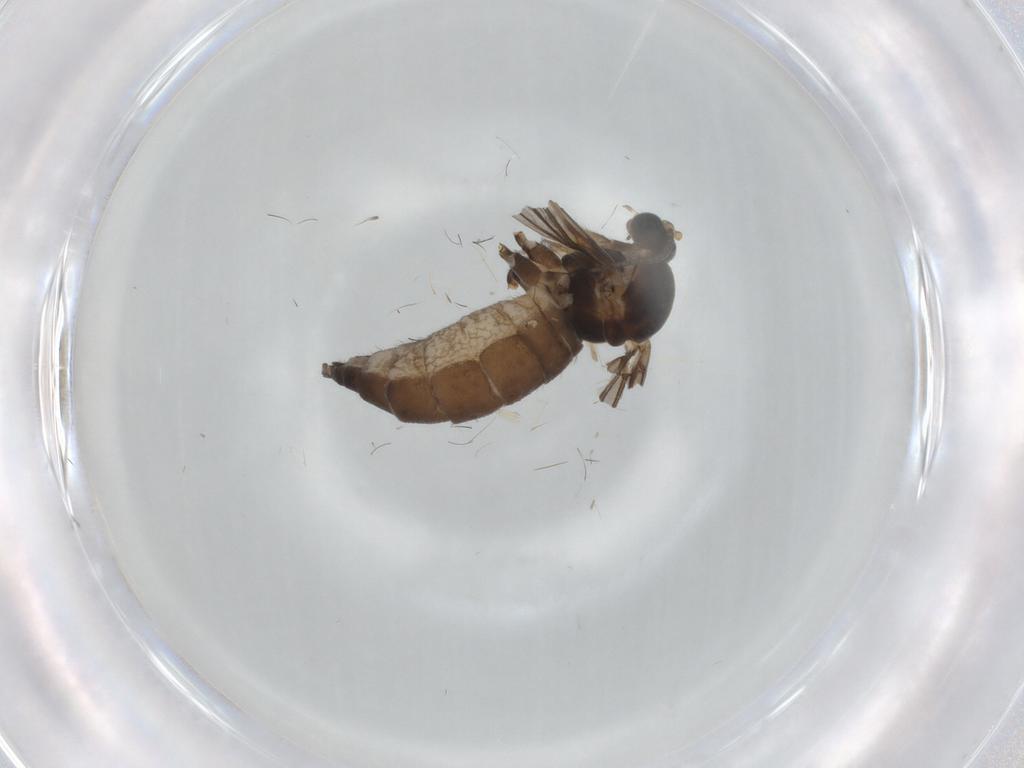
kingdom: Animalia
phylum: Arthropoda
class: Insecta
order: Diptera
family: Sciaridae
